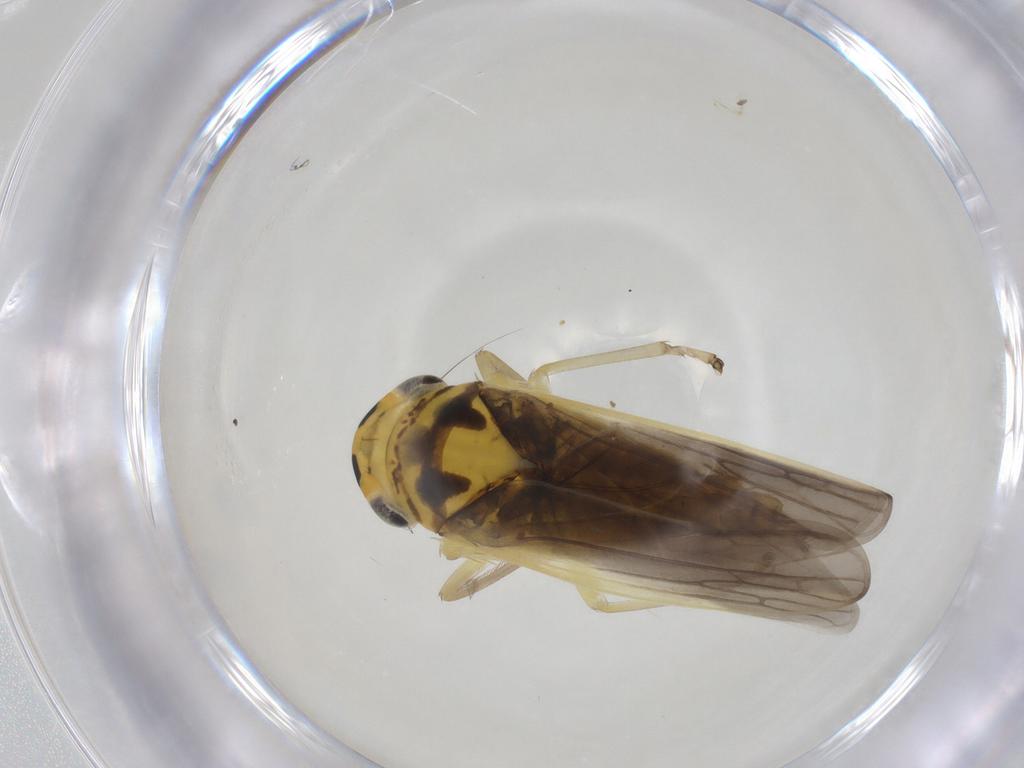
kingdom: Animalia
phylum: Arthropoda
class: Insecta
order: Hemiptera
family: Cicadellidae
